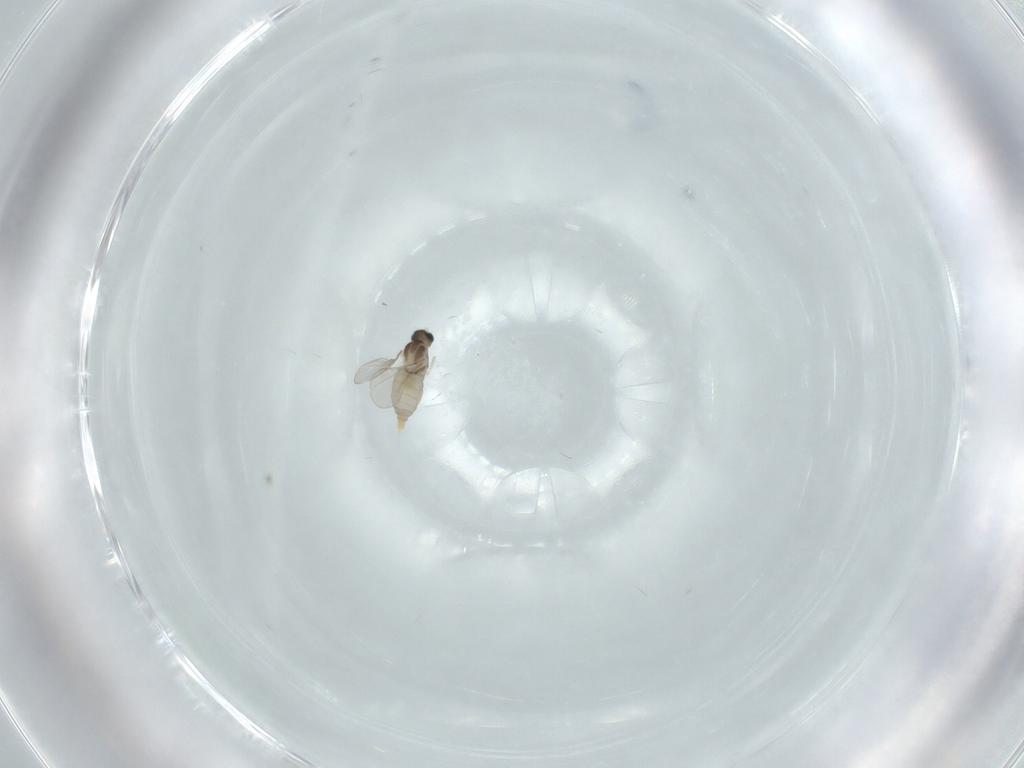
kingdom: Animalia
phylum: Arthropoda
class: Insecta
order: Diptera
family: Cecidomyiidae
